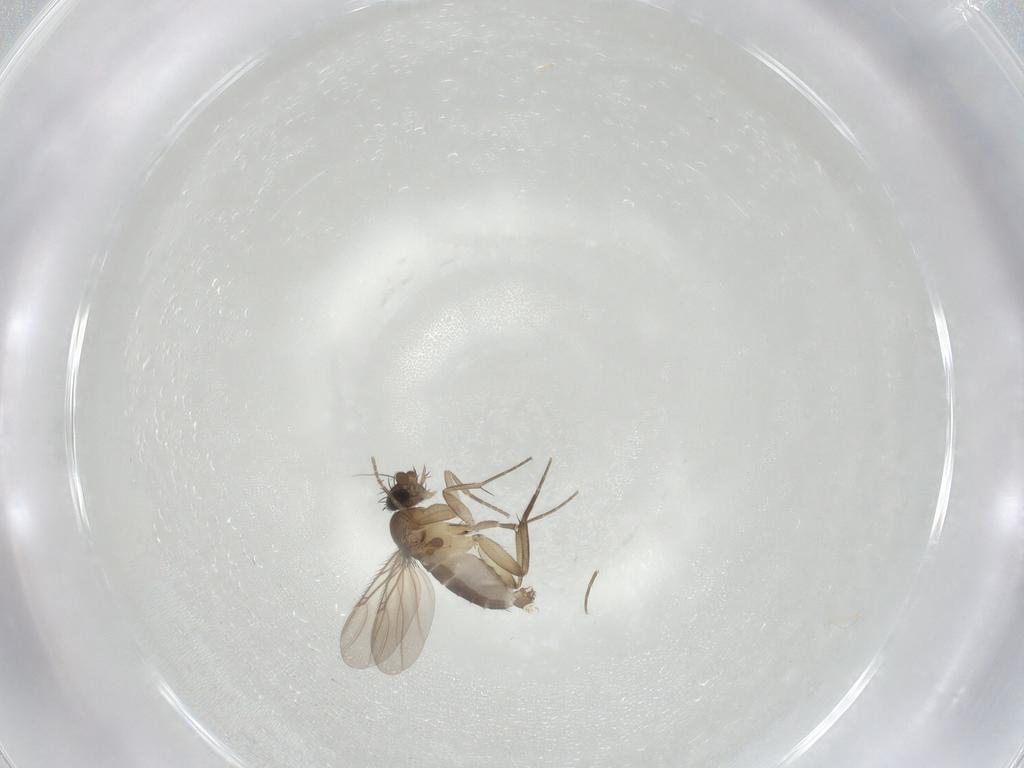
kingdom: Animalia
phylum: Arthropoda
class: Insecta
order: Diptera
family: Phoridae
